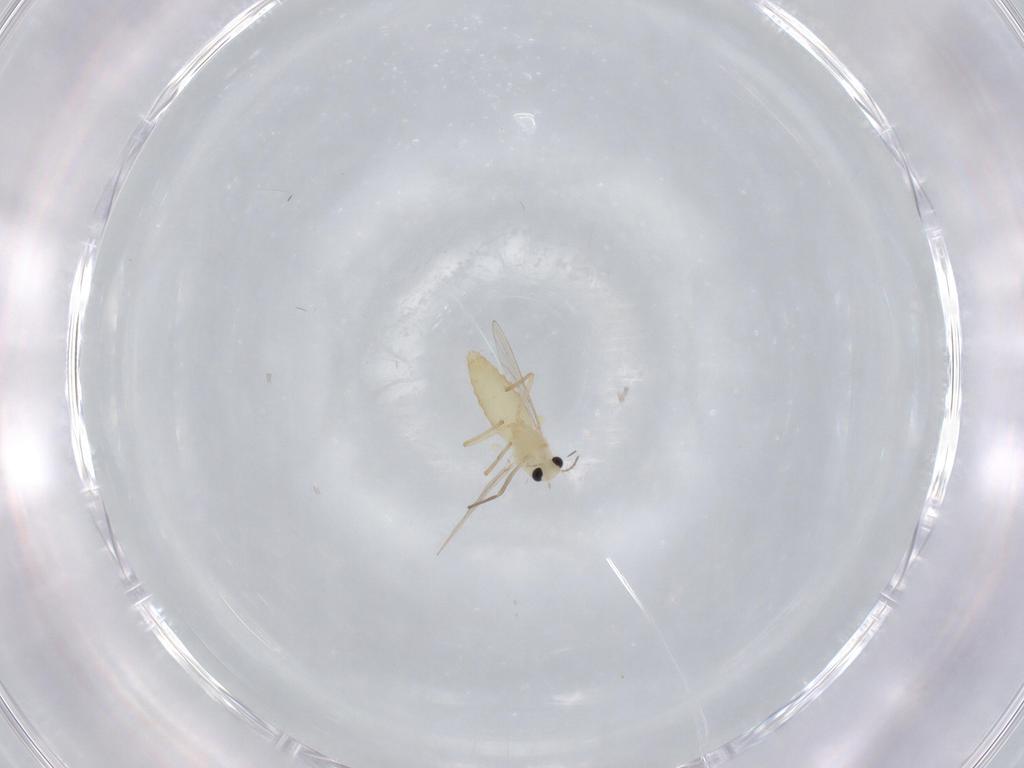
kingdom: Animalia
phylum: Arthropoda
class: Insecta
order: Diptera
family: Chironomidae
